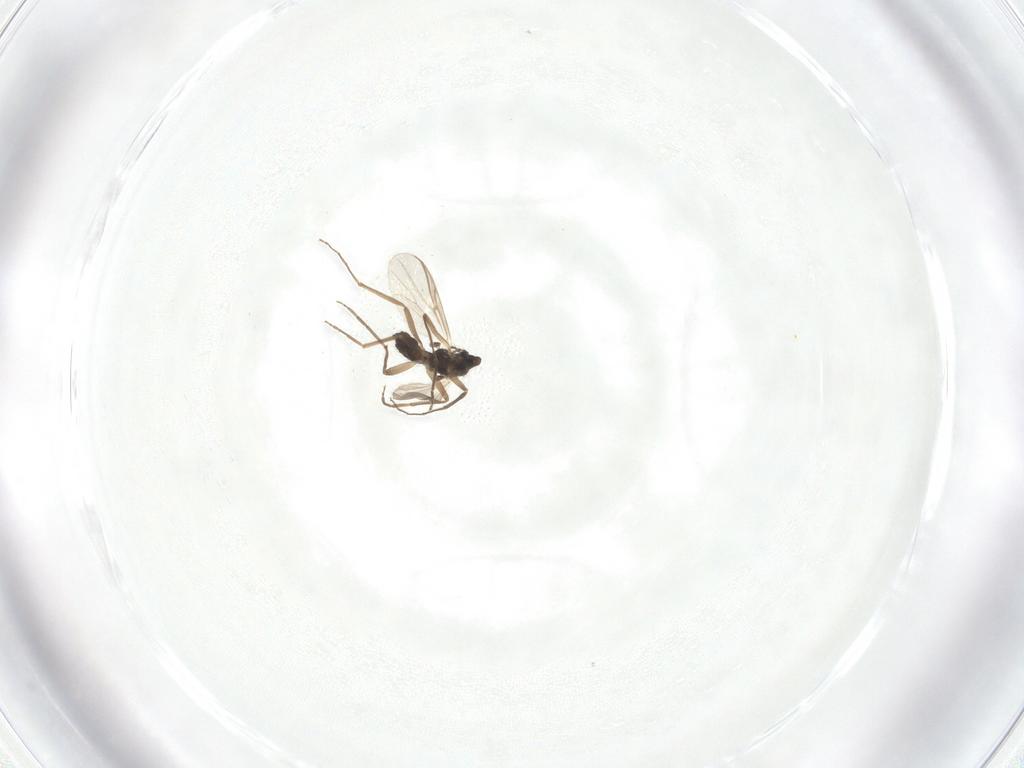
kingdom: Animalia
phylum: Arthropoda
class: Insecta
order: Diptera
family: Chironomidae
